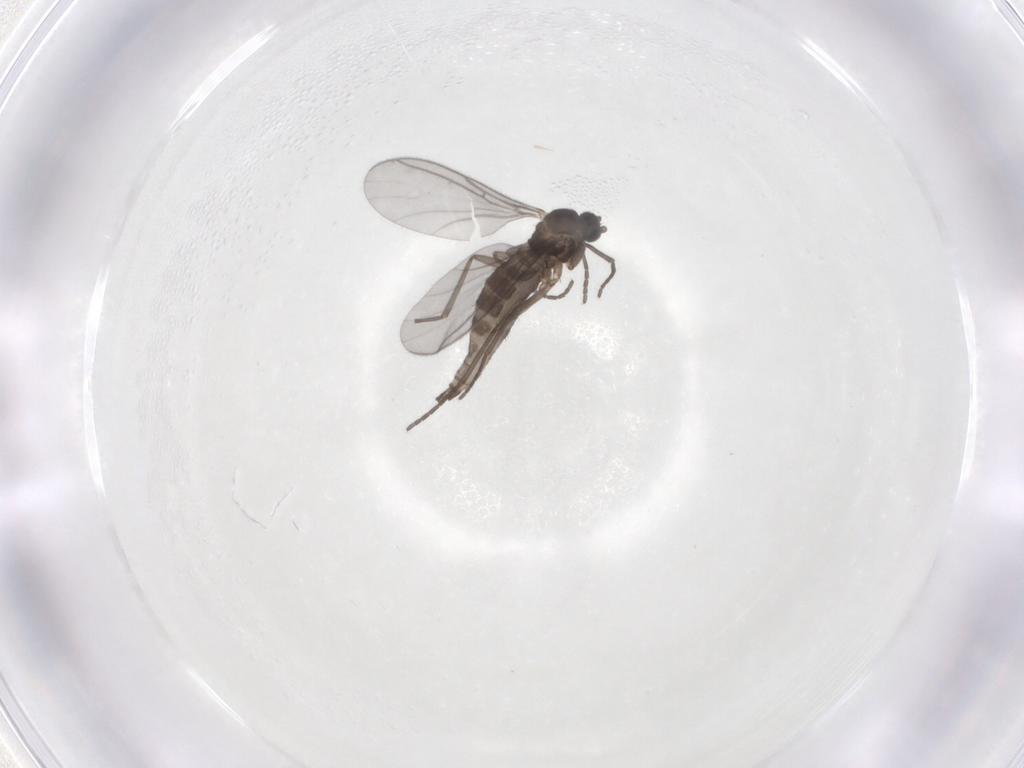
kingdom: Animalia
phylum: Arthropoda
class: Insecta
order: Diptera
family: Sciaridae
